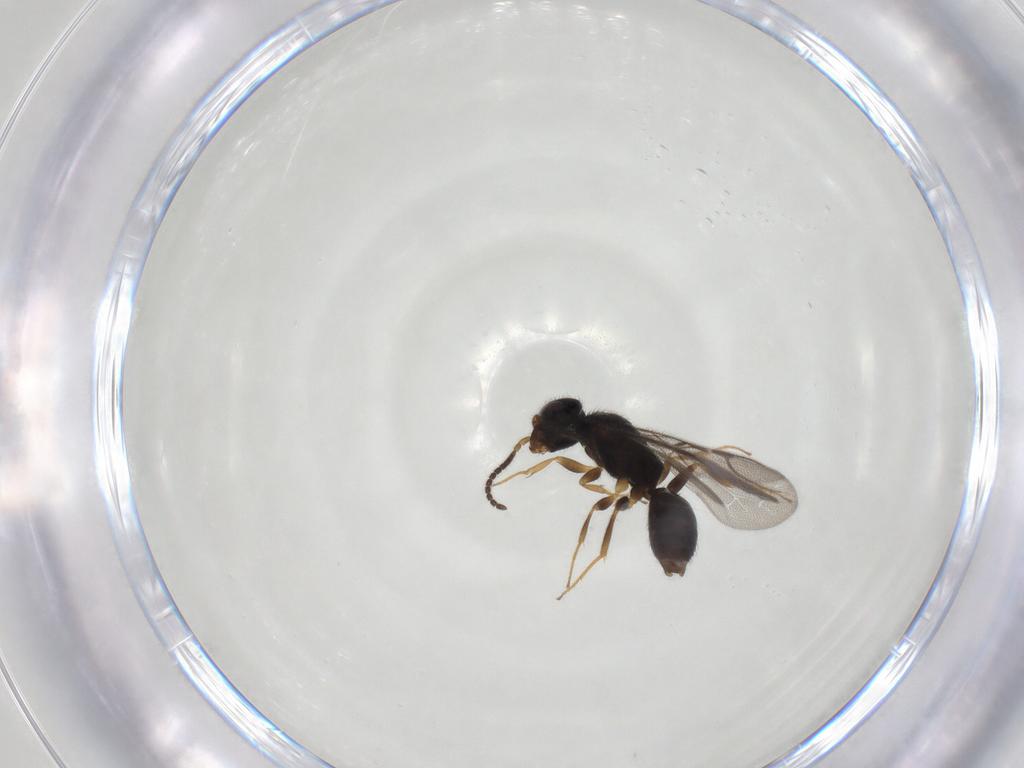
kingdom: Animalia
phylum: Arthropoda
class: Insecta
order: Hymenoptera
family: Bethylidae
